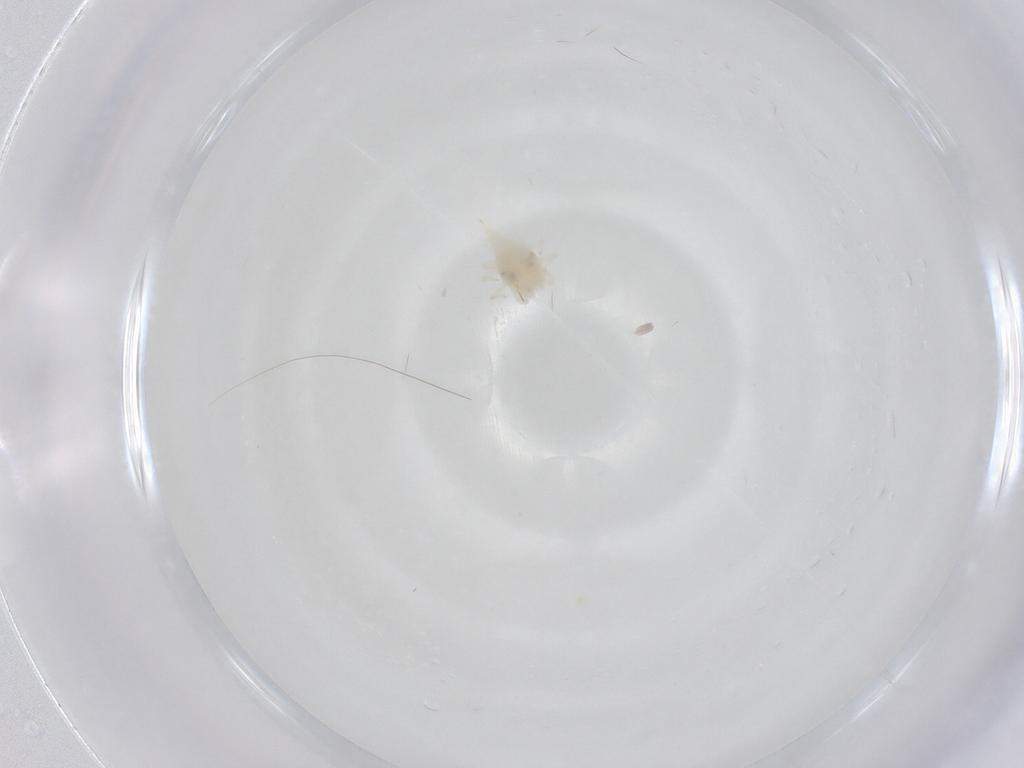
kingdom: Animalia
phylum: Arthropoda
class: Arachnida
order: Trombidiformes
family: Bdellidae
